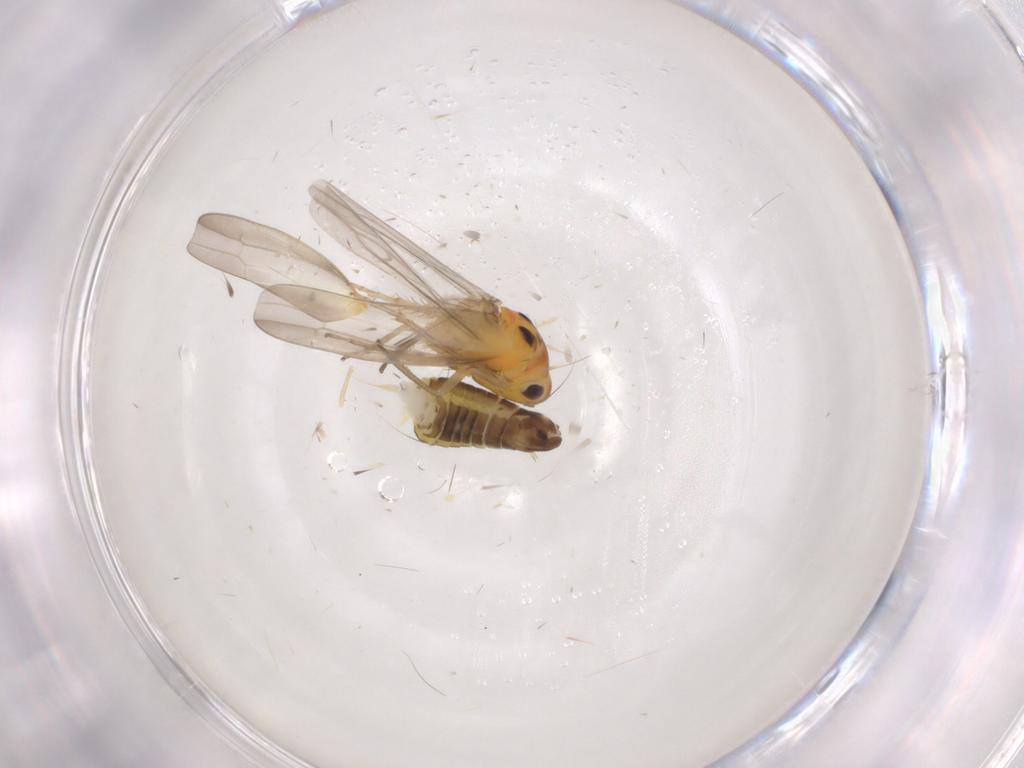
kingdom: Animalia
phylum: Arthropoda
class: Insecta
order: Hemiptera
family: Cicadellidae
